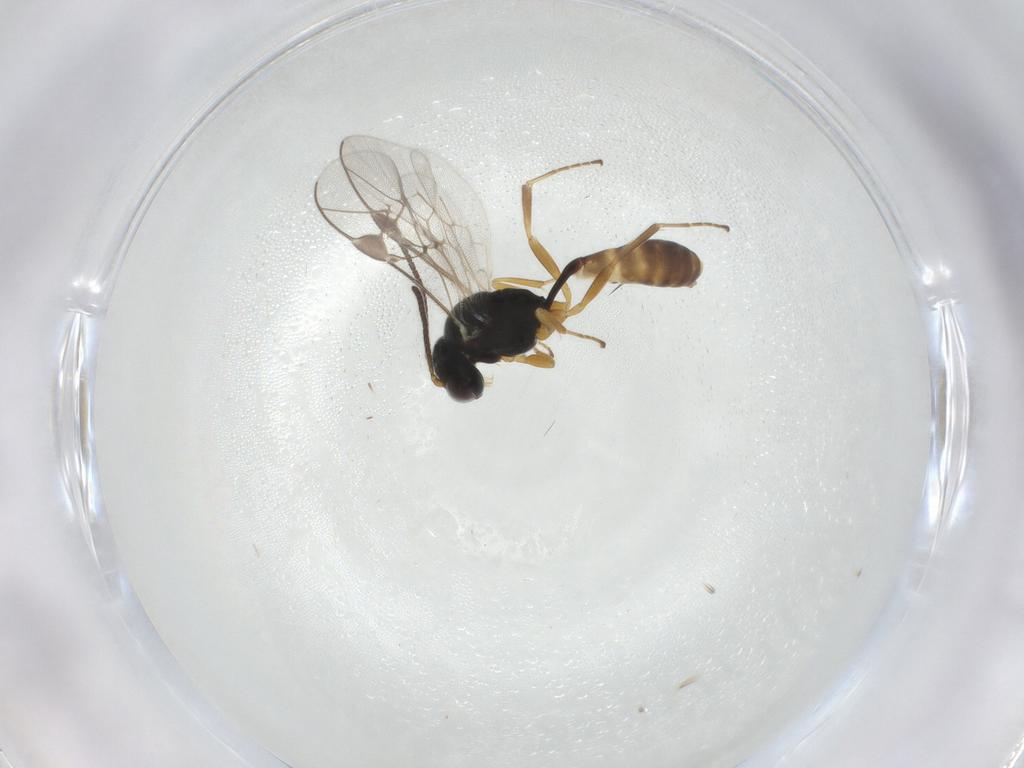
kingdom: Animalia
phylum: Arthropoda
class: Insecta
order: Hymenoptera
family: Ichneumonidae
